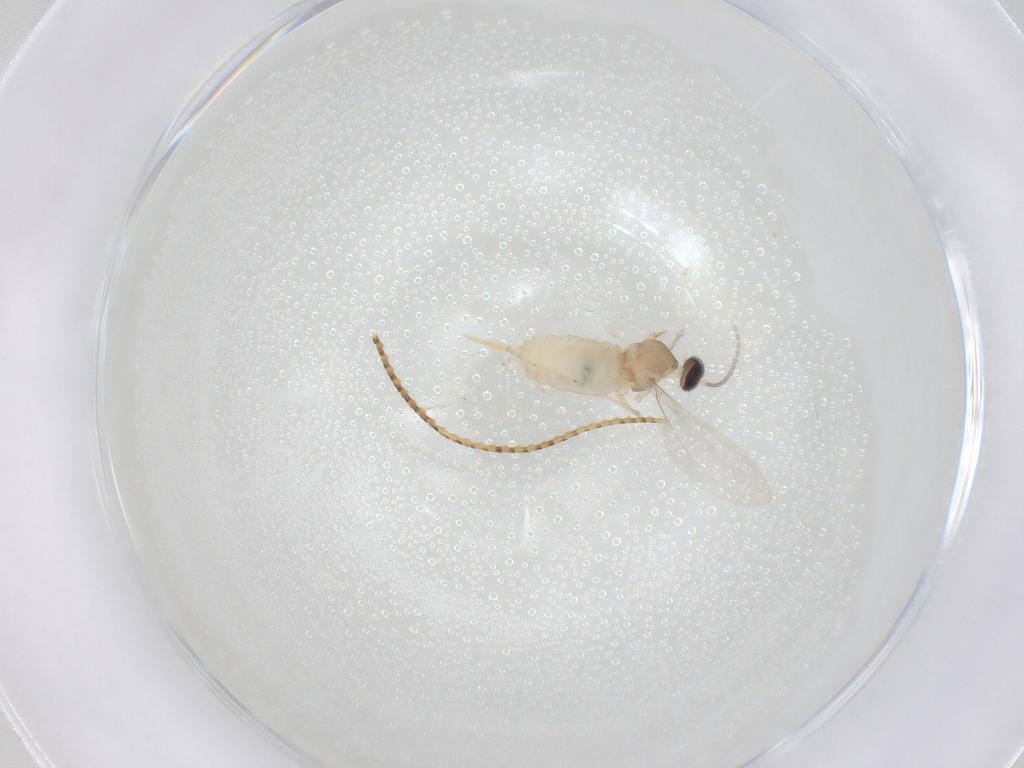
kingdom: Animalia
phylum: Arthropoda
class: Insecta
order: Diptera
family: Cecidomyiidae
